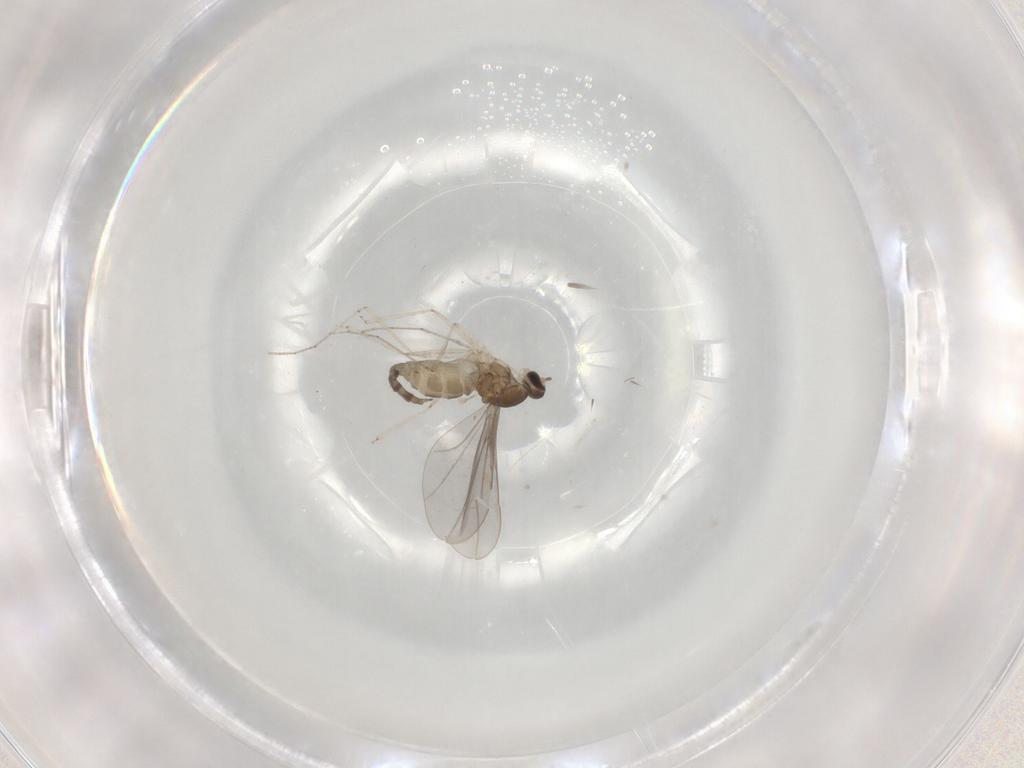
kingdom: Animalia
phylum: Arthropoda
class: Insecta
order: Diptera
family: Cecidomyiidae
